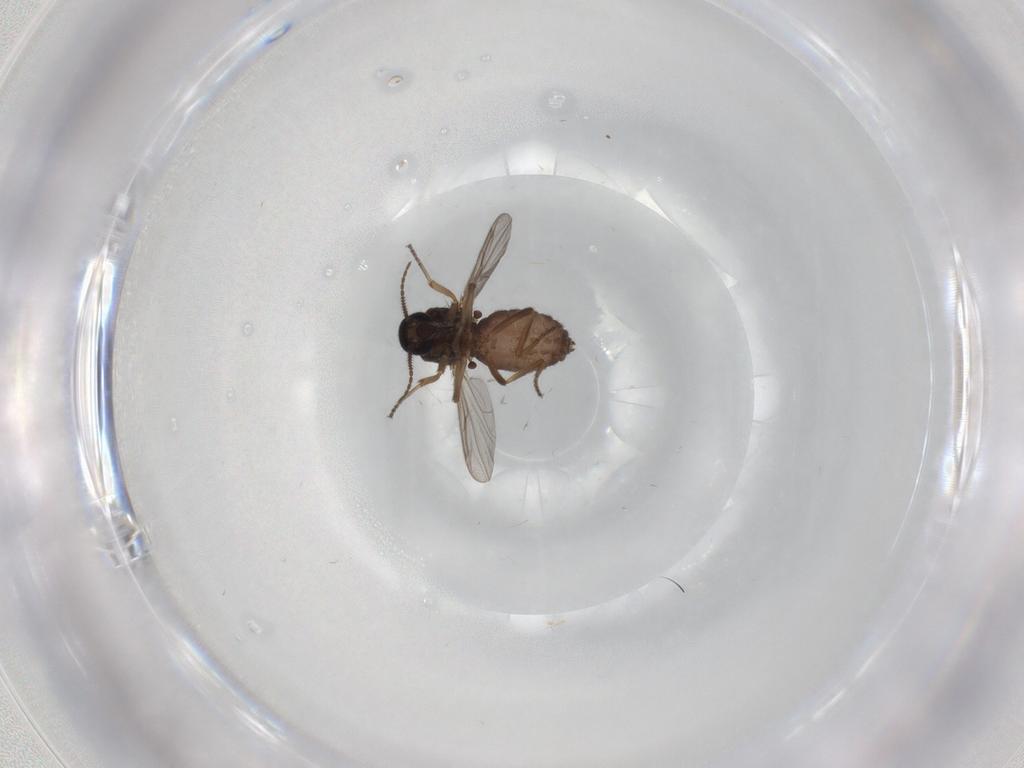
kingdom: Animalia
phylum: Arthropoda
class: Insecta
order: Diptera
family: Ceratopogonidae
